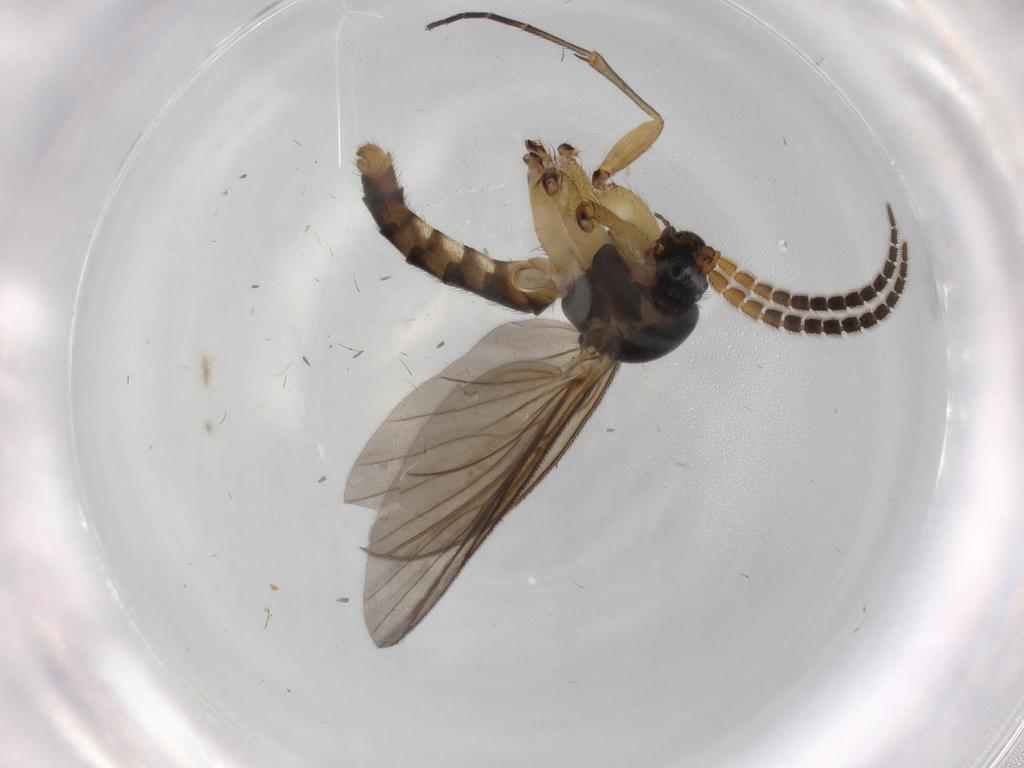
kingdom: Animalia
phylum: Arthropoda
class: Insecta
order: Diptera
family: Mycetophilidae
